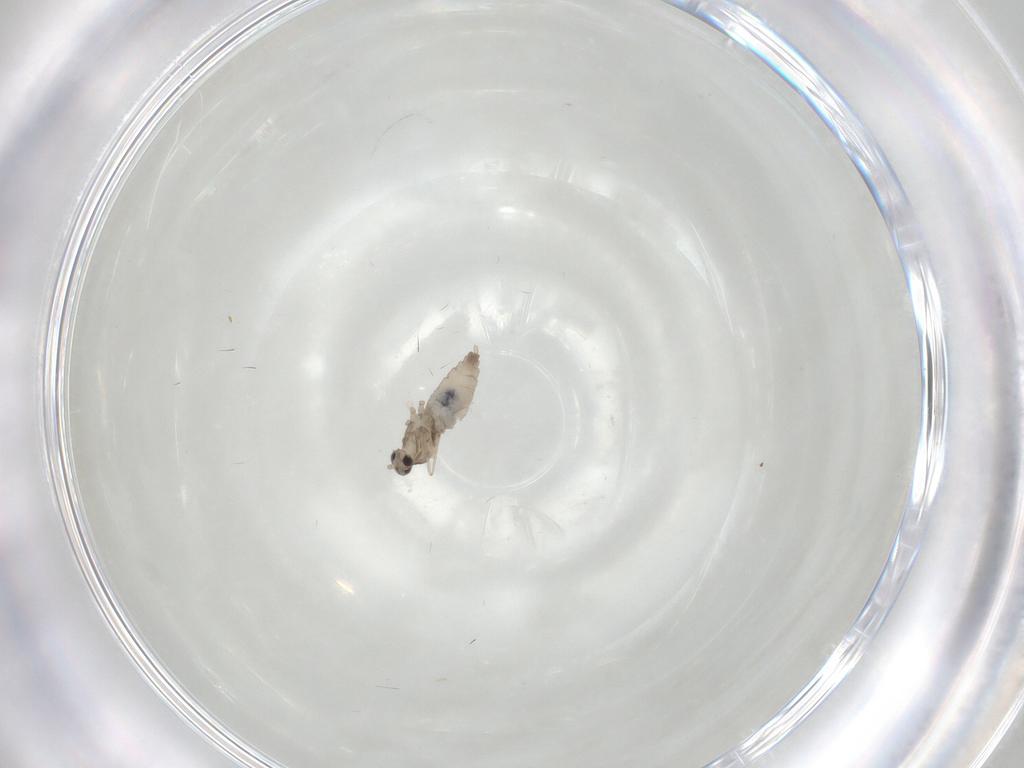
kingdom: Animalia
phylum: Arthropoda
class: Insecta
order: Diptera
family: Cecidomyiidae
